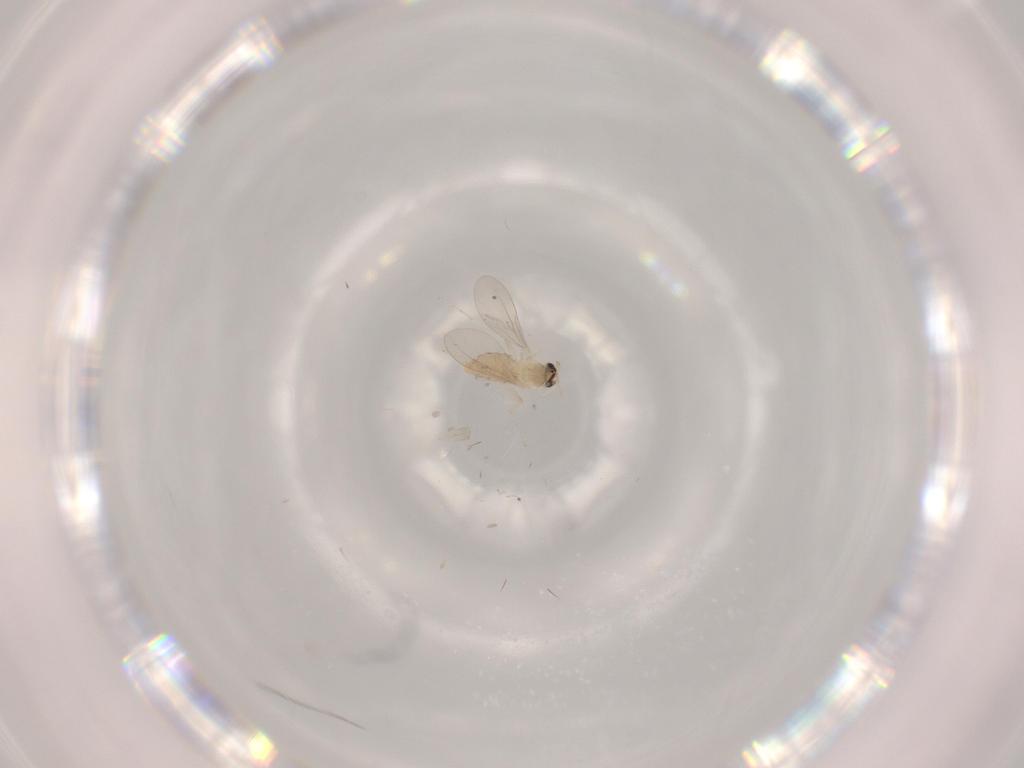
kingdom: Animalia
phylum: Arthropoda
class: Insecta
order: Diptera
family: Cecidomyiidae
